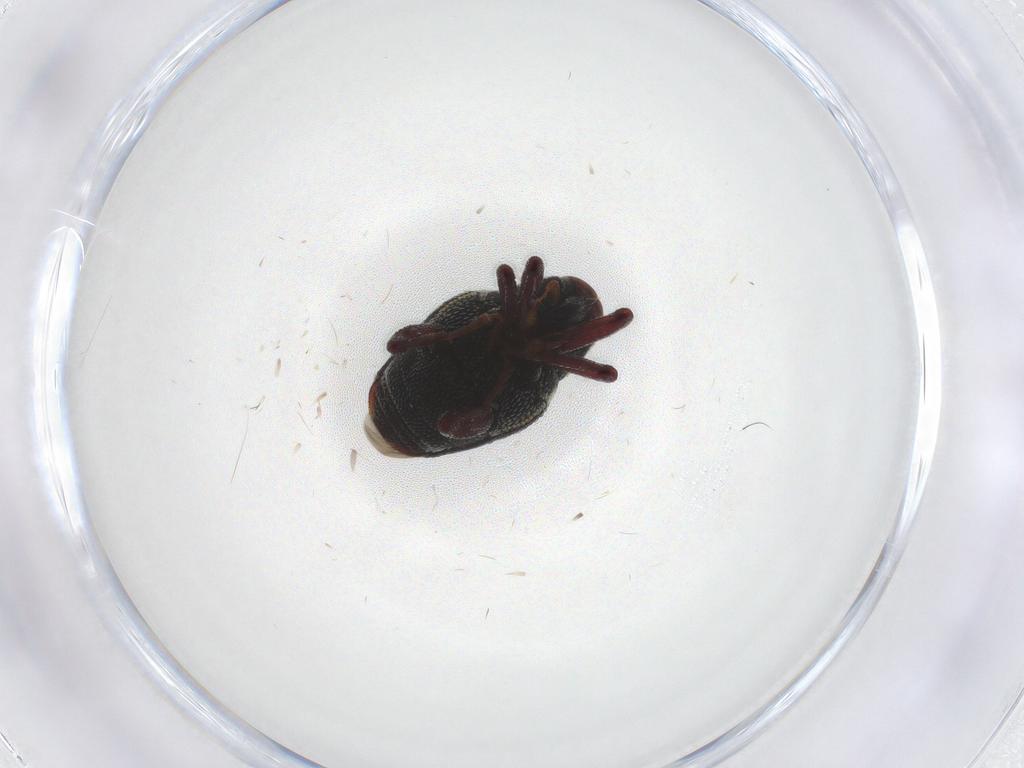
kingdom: Animalia
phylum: Arthropoda
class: Insecta
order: Coleoptera
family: Curculionidae
